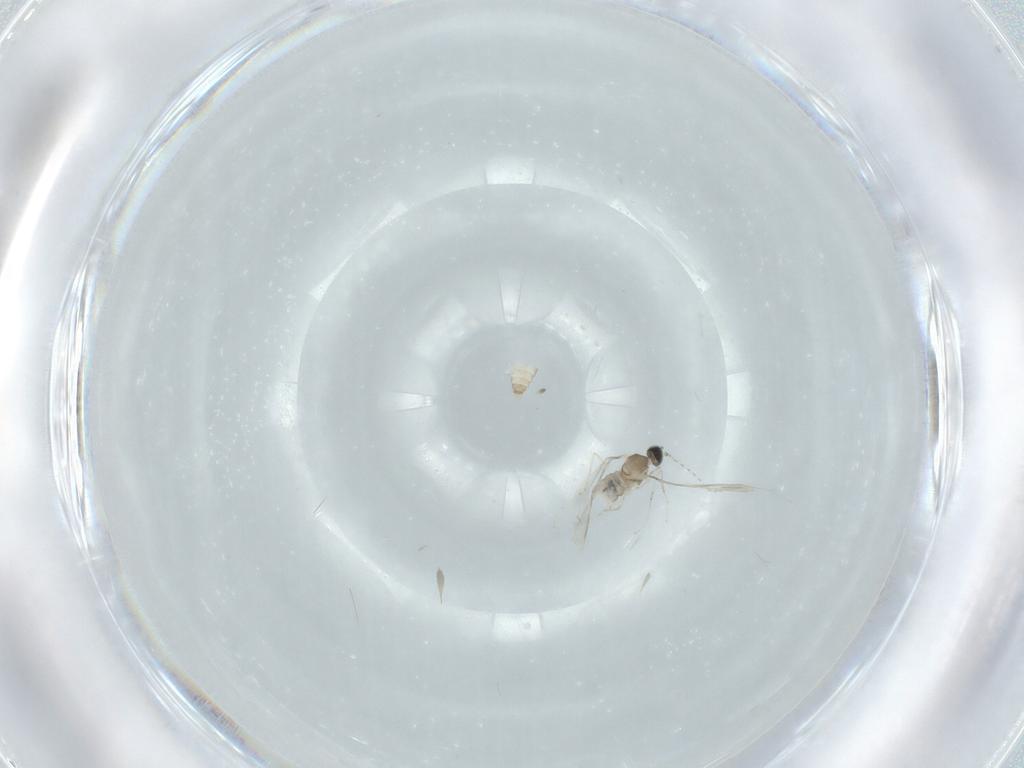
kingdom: Animalia
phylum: Arthropoda
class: Insecta
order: Diptera
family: Cecidomyiidae
